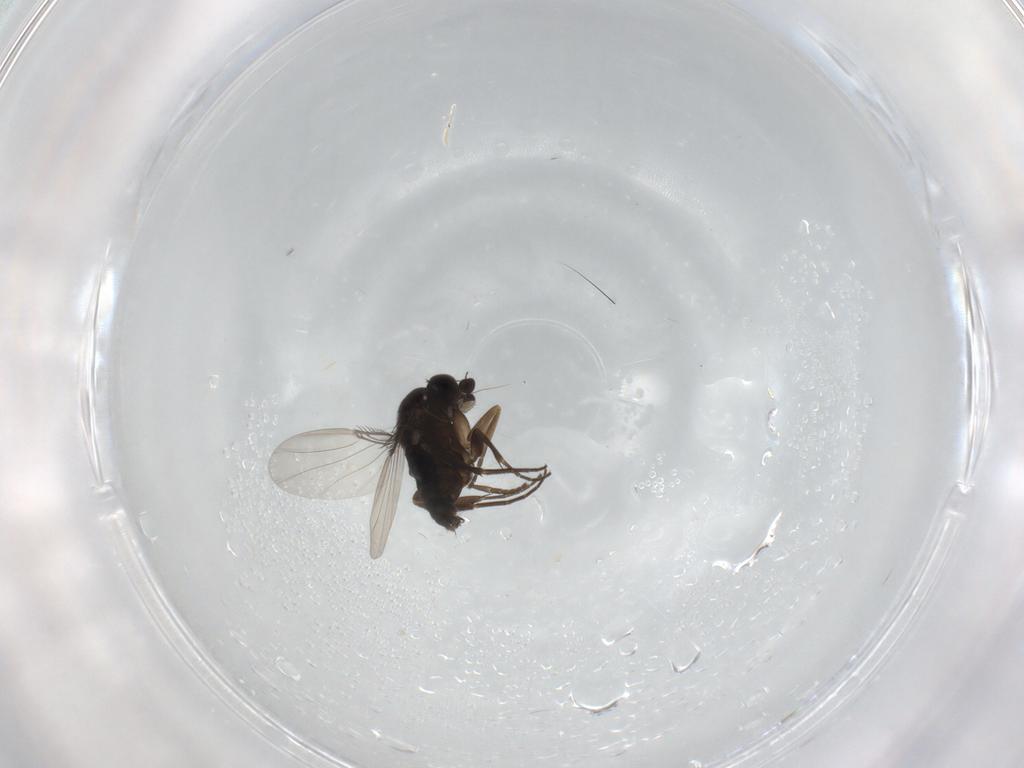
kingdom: Animalia
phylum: Arthropoda
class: Insecta
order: Diptera
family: Phoridae
